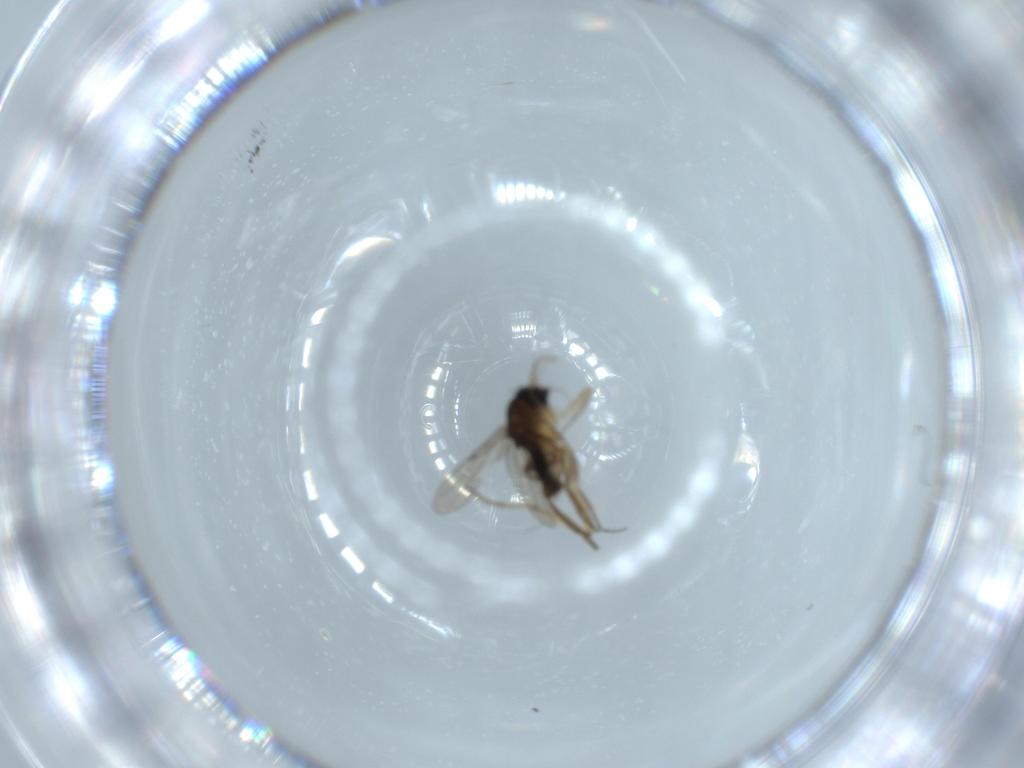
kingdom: Animalia
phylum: Arthropoda
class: Insecta
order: Diptera
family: Phoridae
